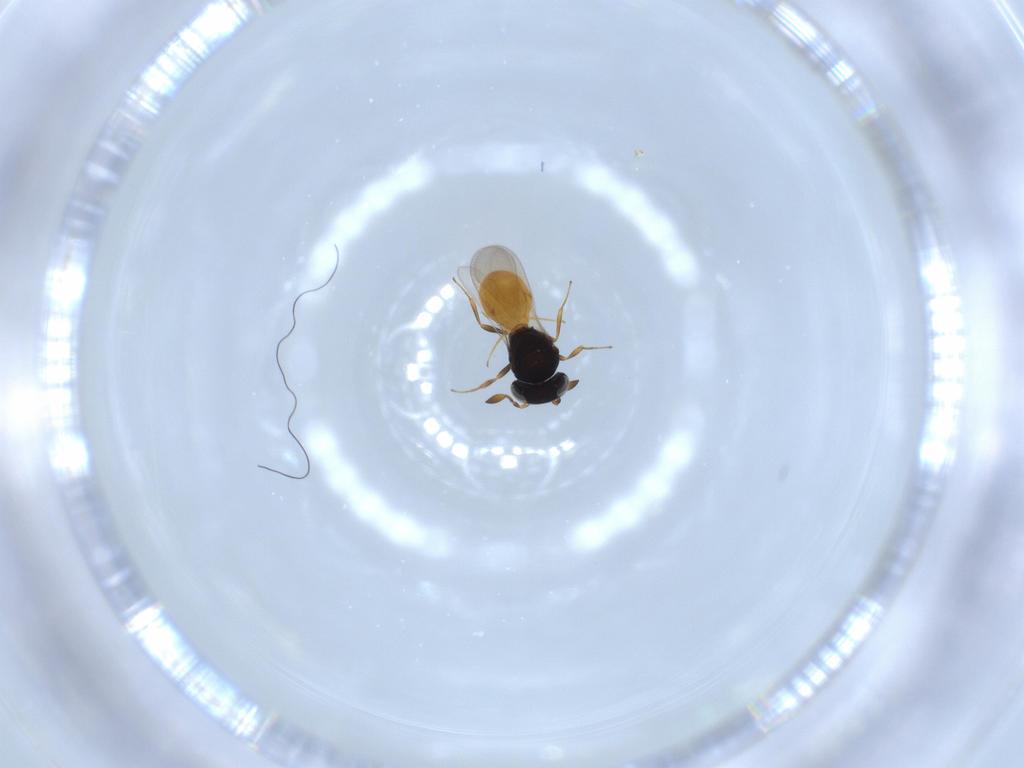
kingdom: Animalia
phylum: Arthropoda
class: Insecta
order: Hymenoptera
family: Scelionidae
